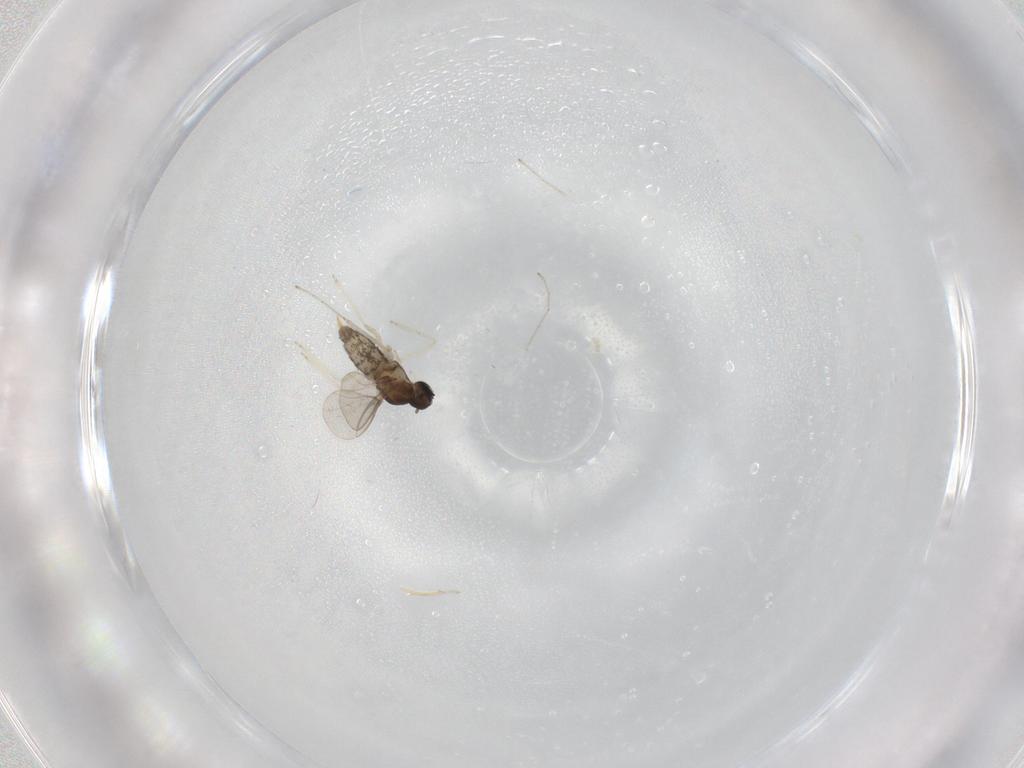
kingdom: Animalia
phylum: Arthropoda
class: Insecta
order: Diptera
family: Cecidomyiidae
